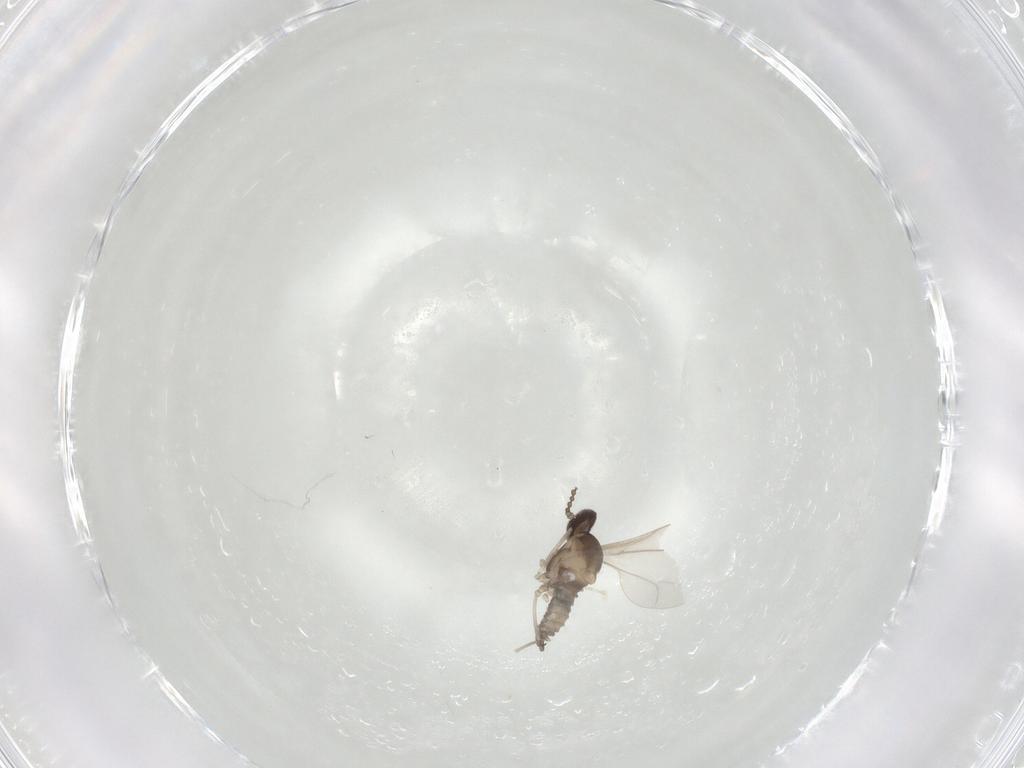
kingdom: Animalia
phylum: Arthropoda
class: Insecta
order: Diptera
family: Cecidomyiidae
